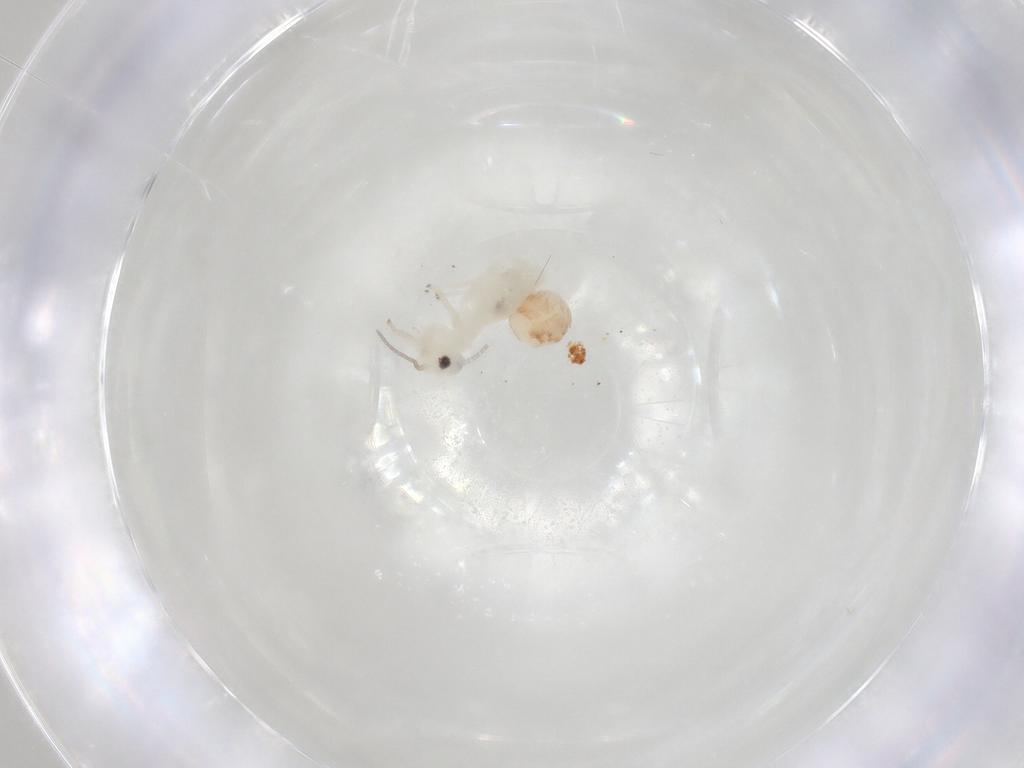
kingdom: Animalia
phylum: Arthropoda
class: Insecta
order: Psocodea
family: Caeciliusidae
